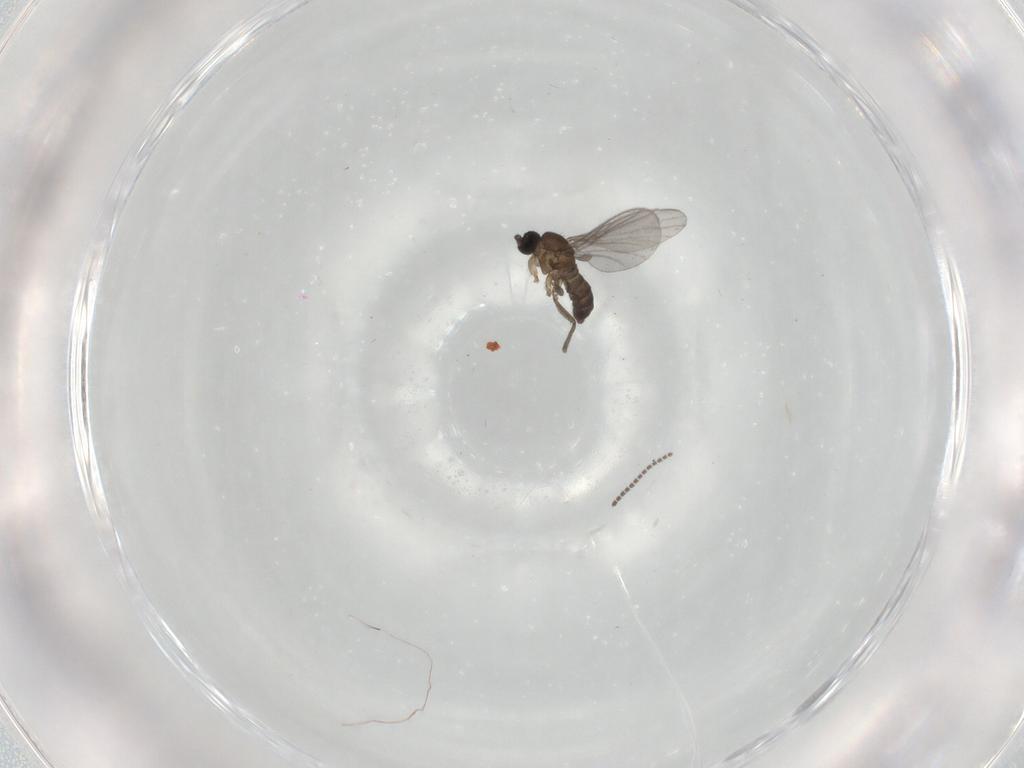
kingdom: Animalia
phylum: Arthropoda
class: Insecta
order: Diptera
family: Sciaridae
